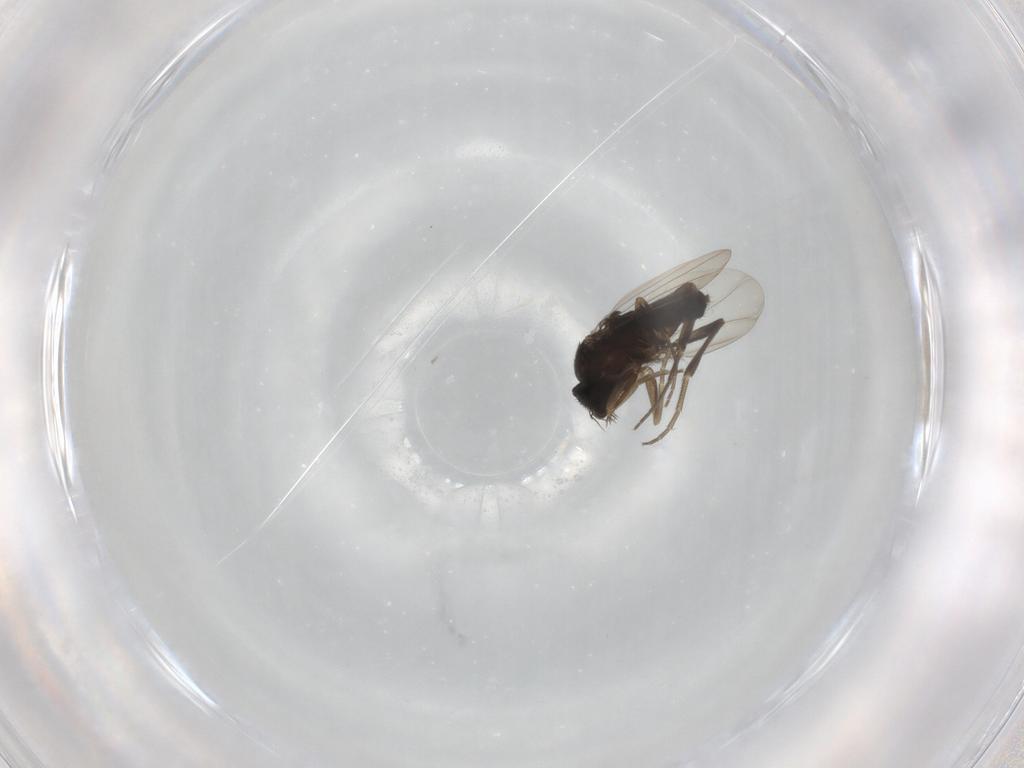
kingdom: Animalia
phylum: Arthropoda
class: Insecta
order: Diptera
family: Phoridae
